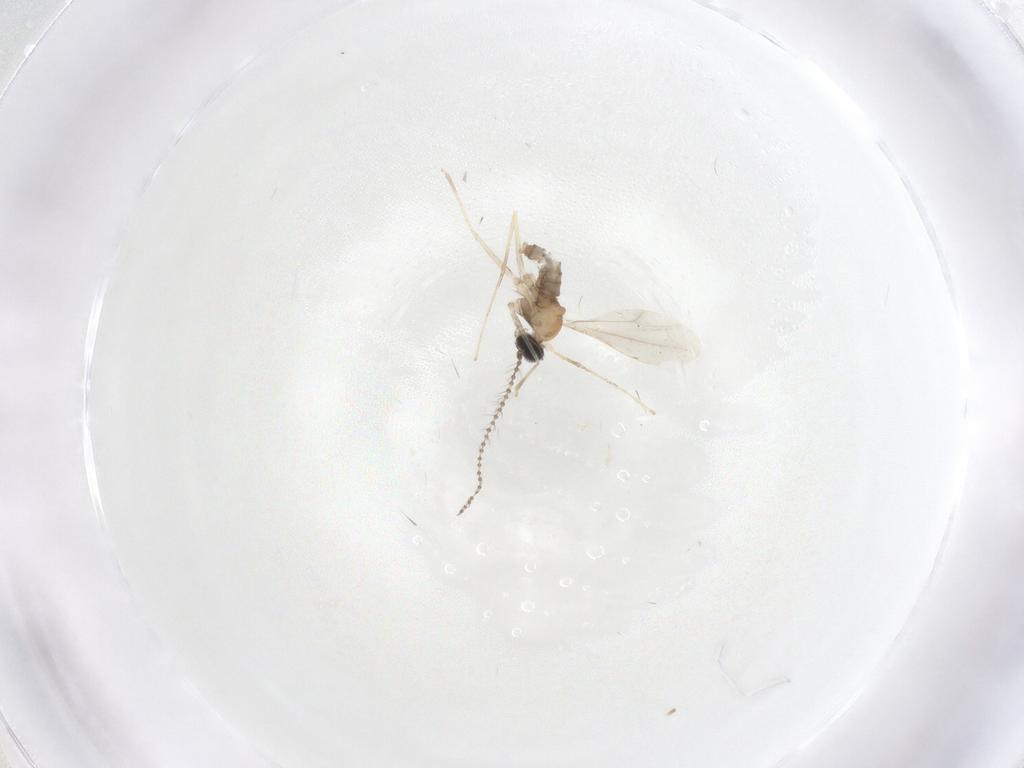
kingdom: Animalia
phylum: Arthropoda
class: Insecta
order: Diptera
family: Cecidomyiidae
